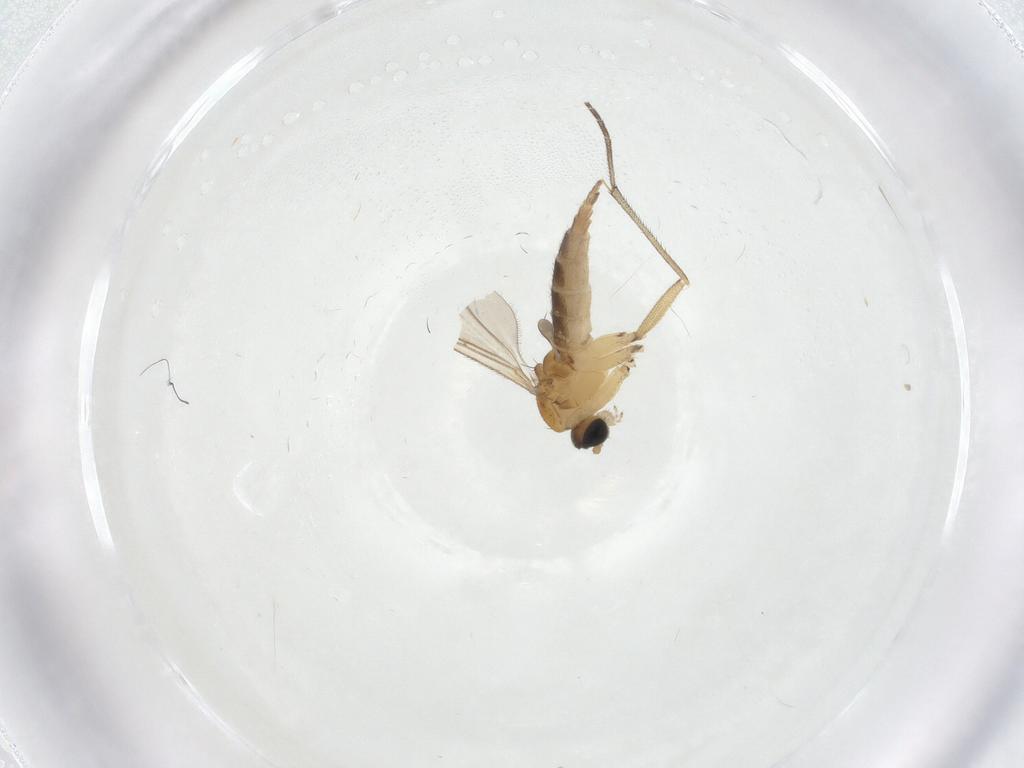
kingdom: Animalia
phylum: Arthropoda
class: Insecta
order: Diptera
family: Sciaridae
